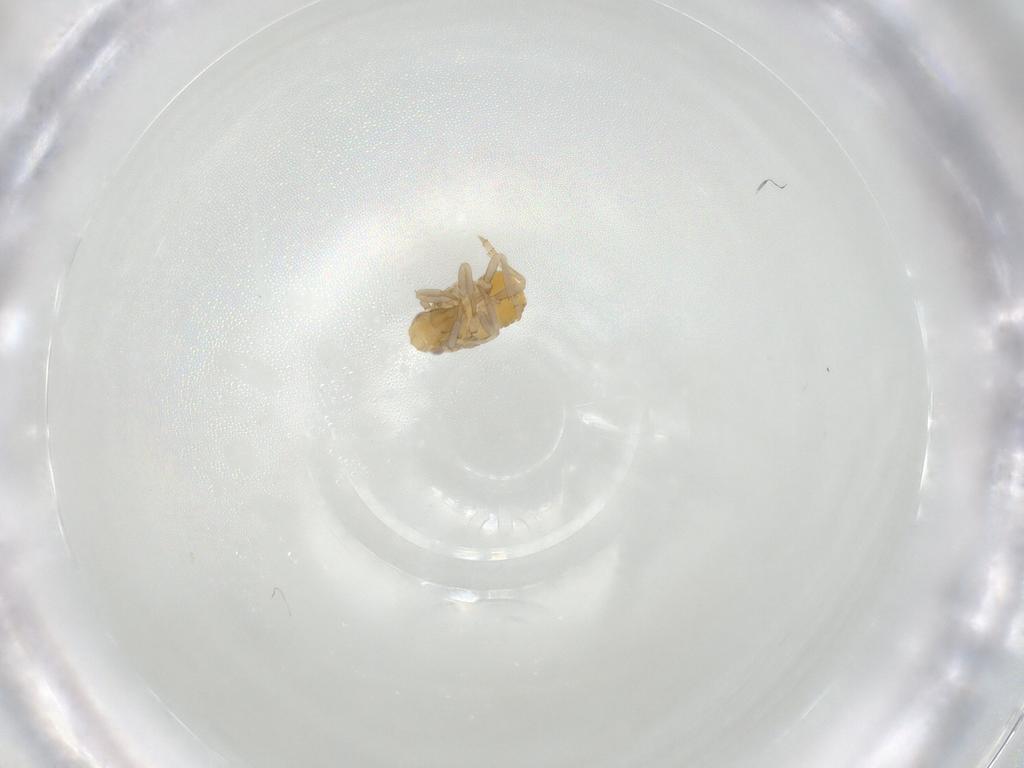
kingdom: Animalia
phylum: Arthropoda
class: Insecta
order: Hemiptera
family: Flatidae
